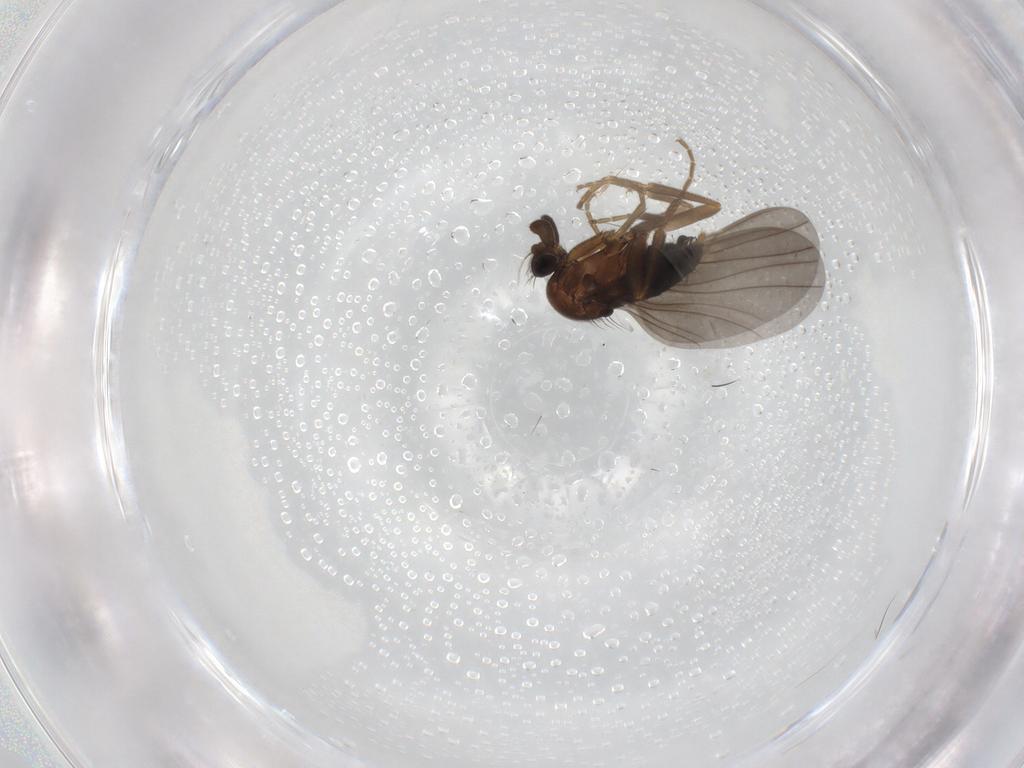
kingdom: Animalia
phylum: Arthropoda
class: Insecta
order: Diptera
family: Phoridae
